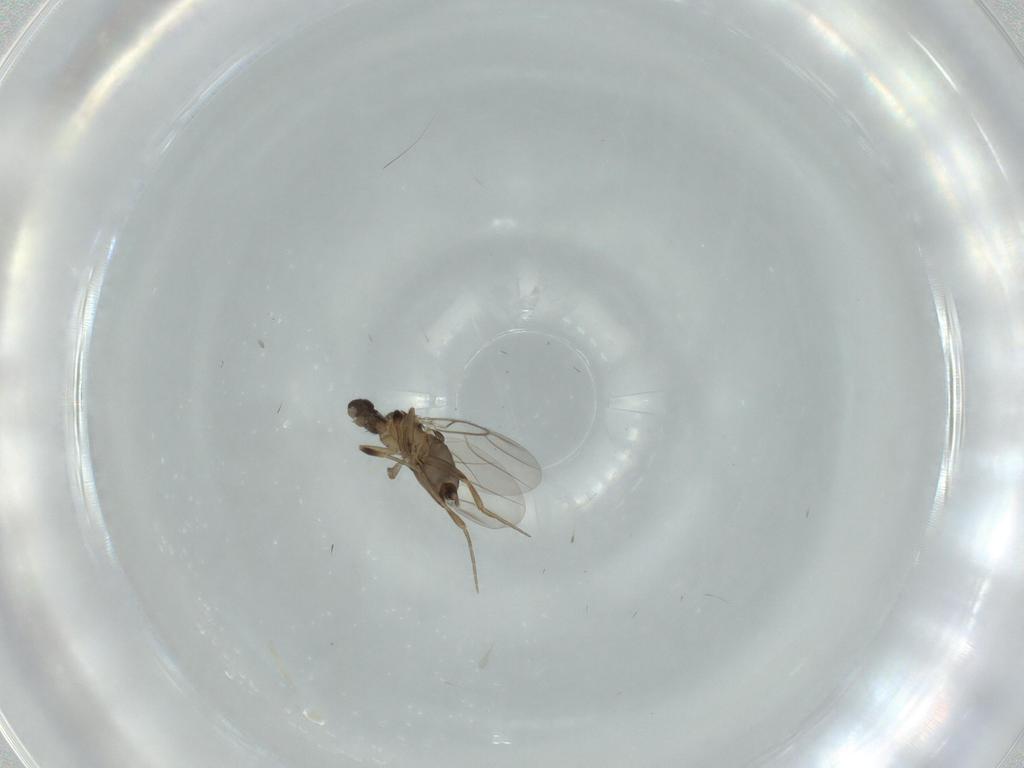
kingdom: Animalia
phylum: Arthropoda
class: Insecta
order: Diptera
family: Phoridae
